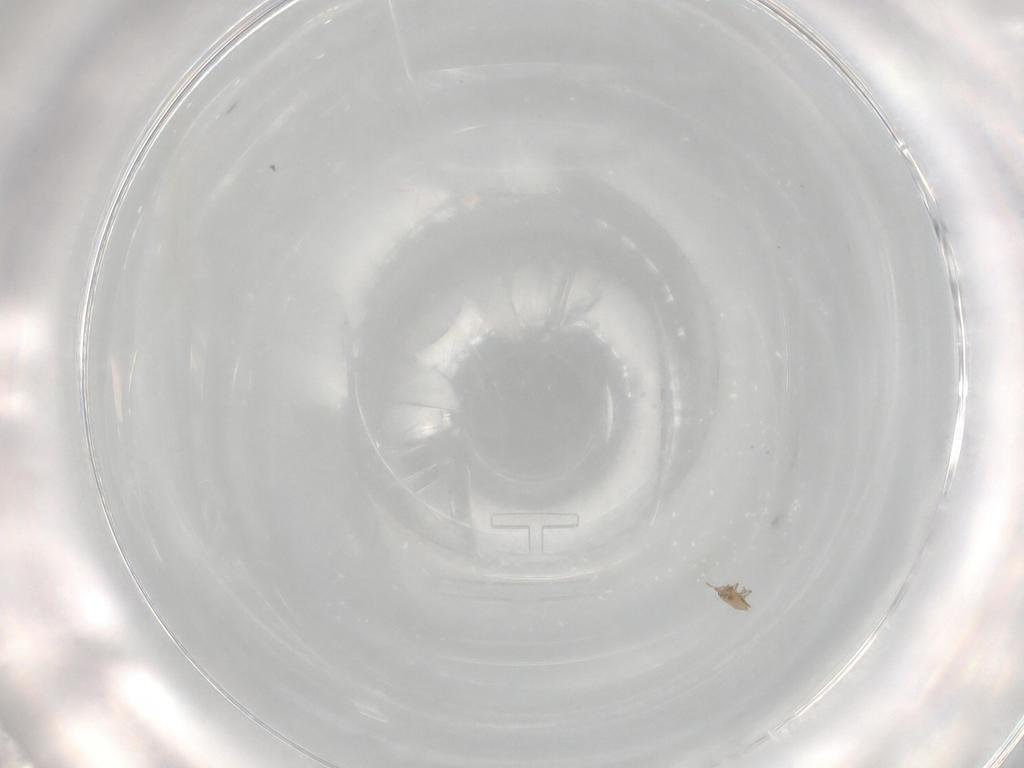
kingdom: Animalia
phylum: Arthropoda
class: Insecta
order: Hemiptera
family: Phylloxeridae
